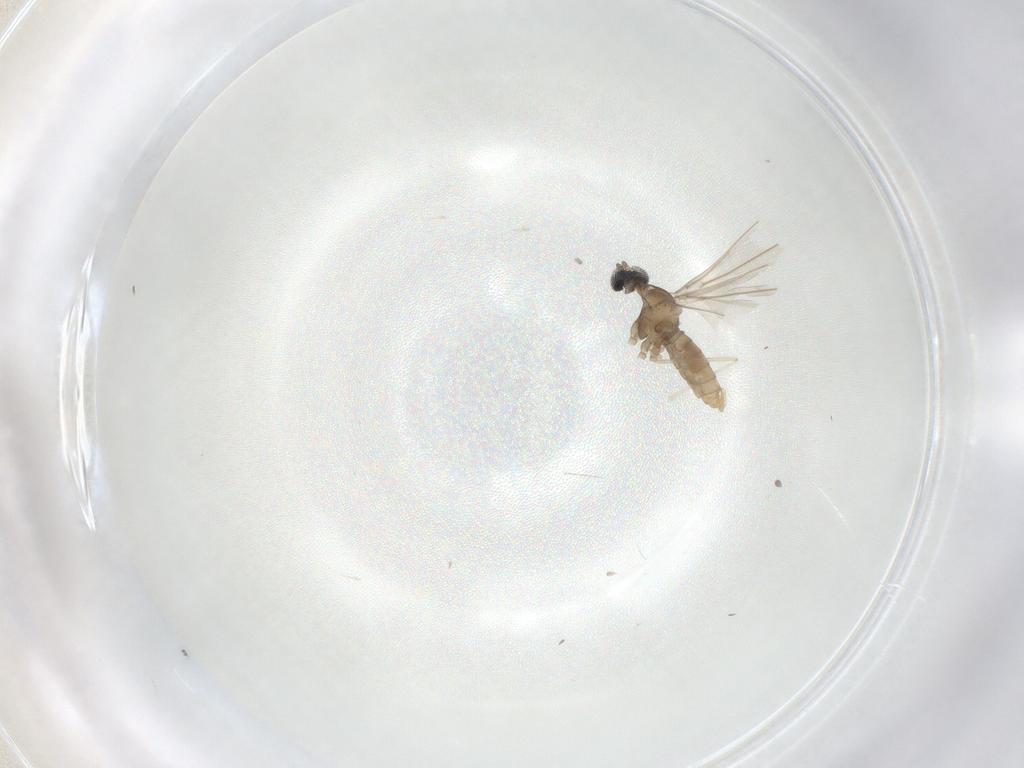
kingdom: Animalia
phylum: Arthropoda
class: Insecta
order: Diptera
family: Cecidomyiidae
